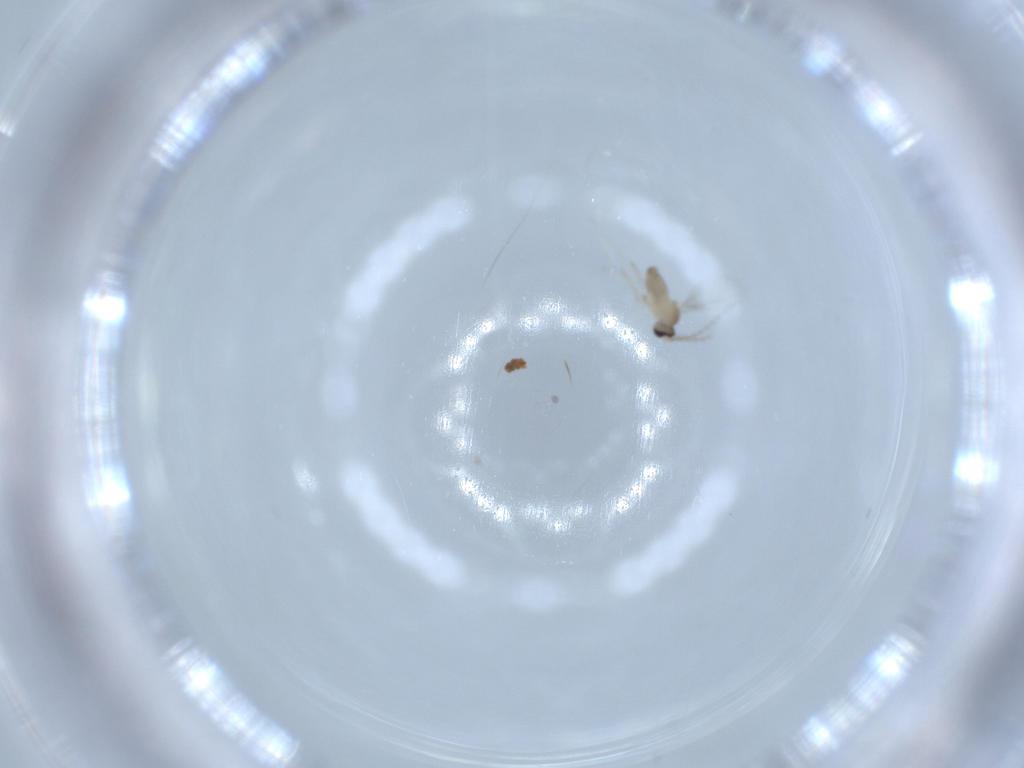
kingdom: Animalia
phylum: Arthropoda
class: Insecta
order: Diptera
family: Cecidomyiidae
